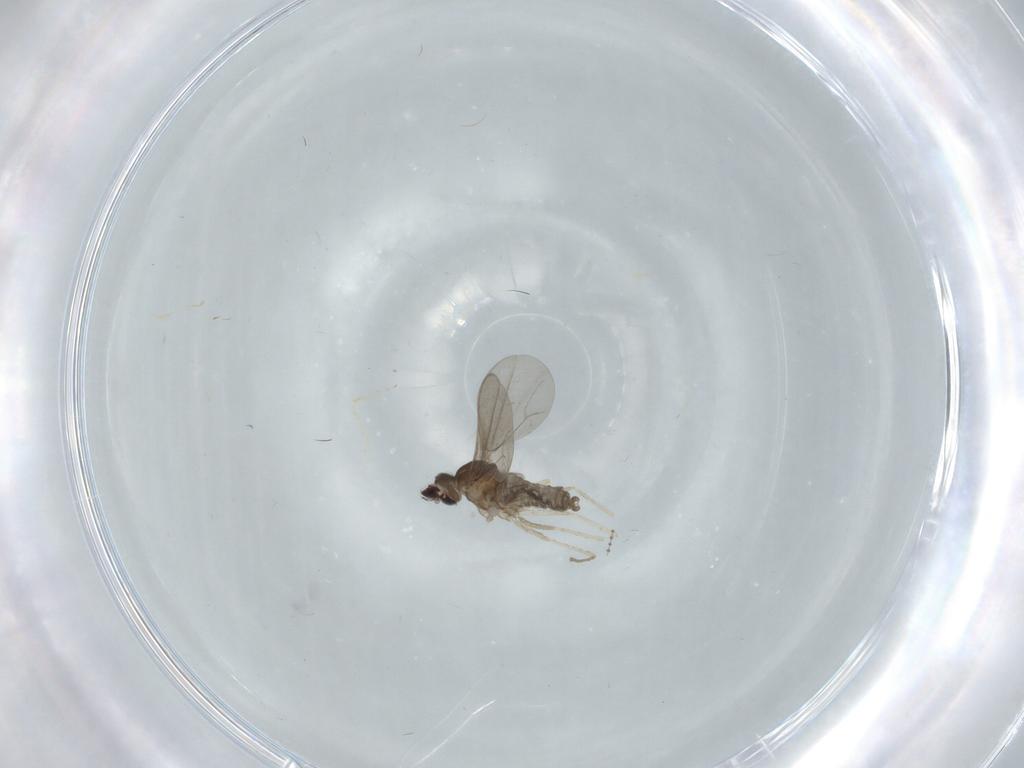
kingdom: Animalia
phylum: Arthropoda
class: Insecta
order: Diptera
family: Cecidomyiidae
